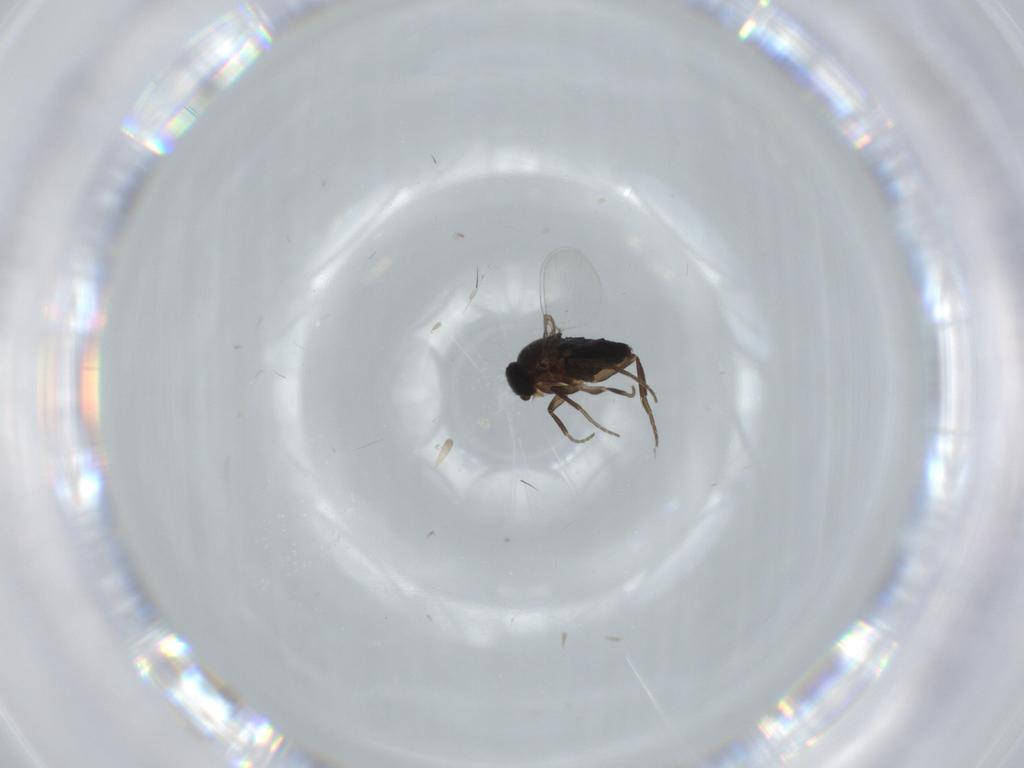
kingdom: Animalia
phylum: Arthropoda
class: Insecta
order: Diptera
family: Phoridae
